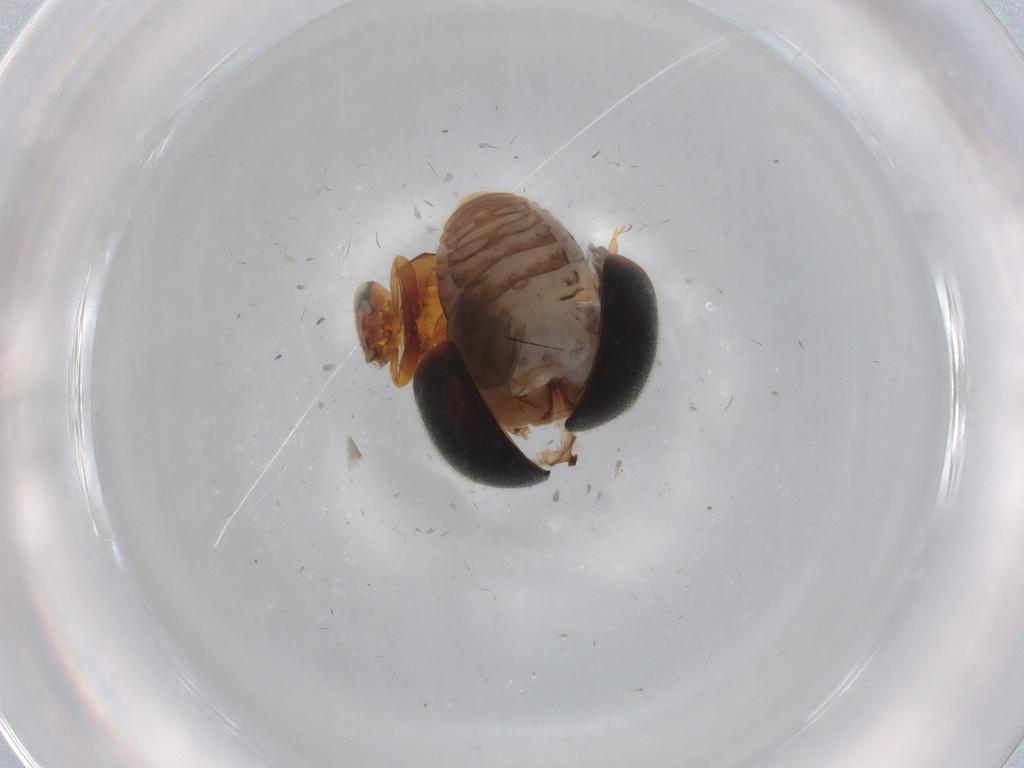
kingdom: Animalia
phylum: Arthropoda
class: Insecta
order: Coleoptera
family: Coccinellidae
